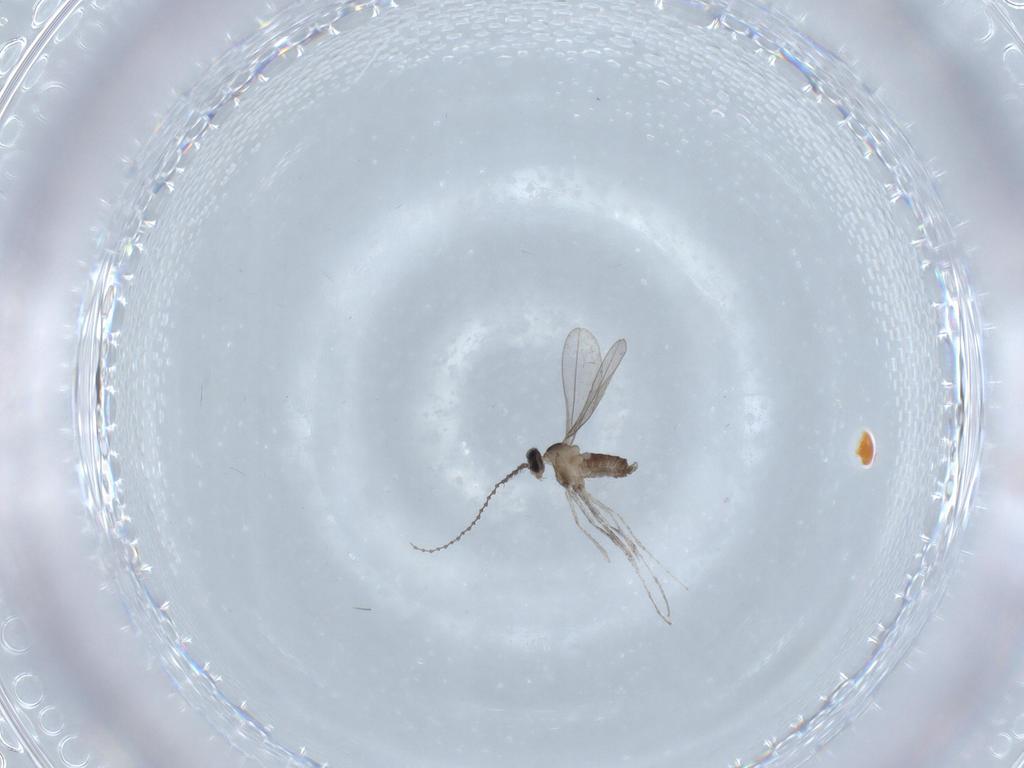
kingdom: Animalia
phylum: Arthropoda
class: Insecta
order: Diptera
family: Cecidomyiidae
